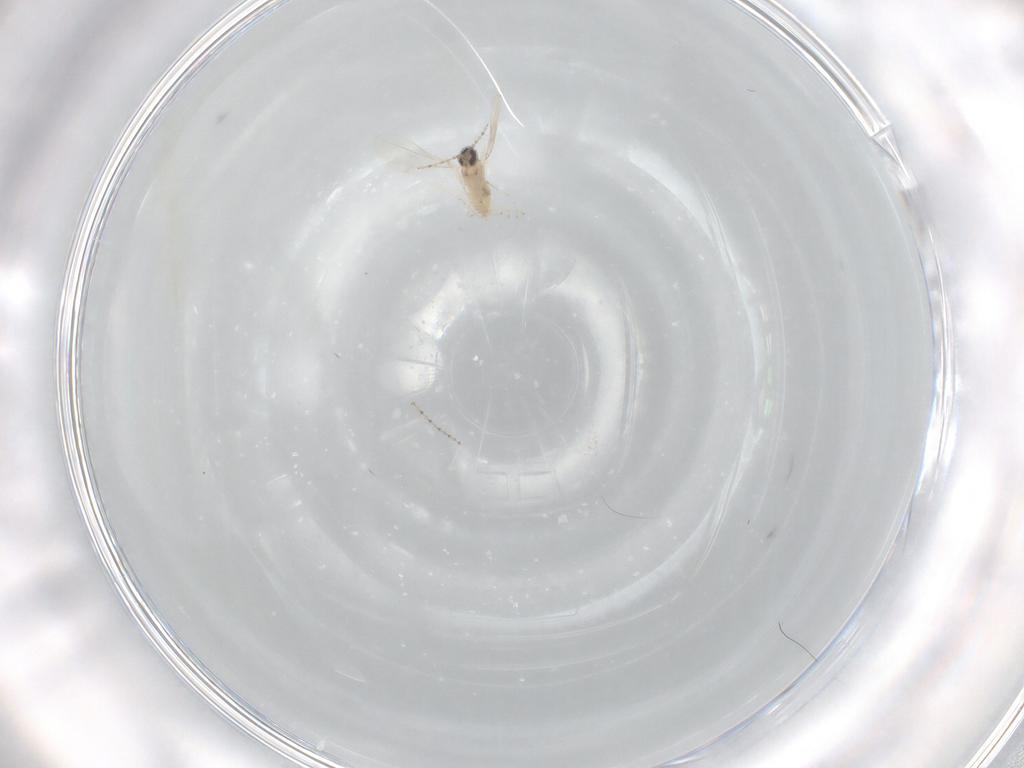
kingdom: Animalia
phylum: Arthropoda
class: Insecta
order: Diptera
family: Cecidomyiidae
